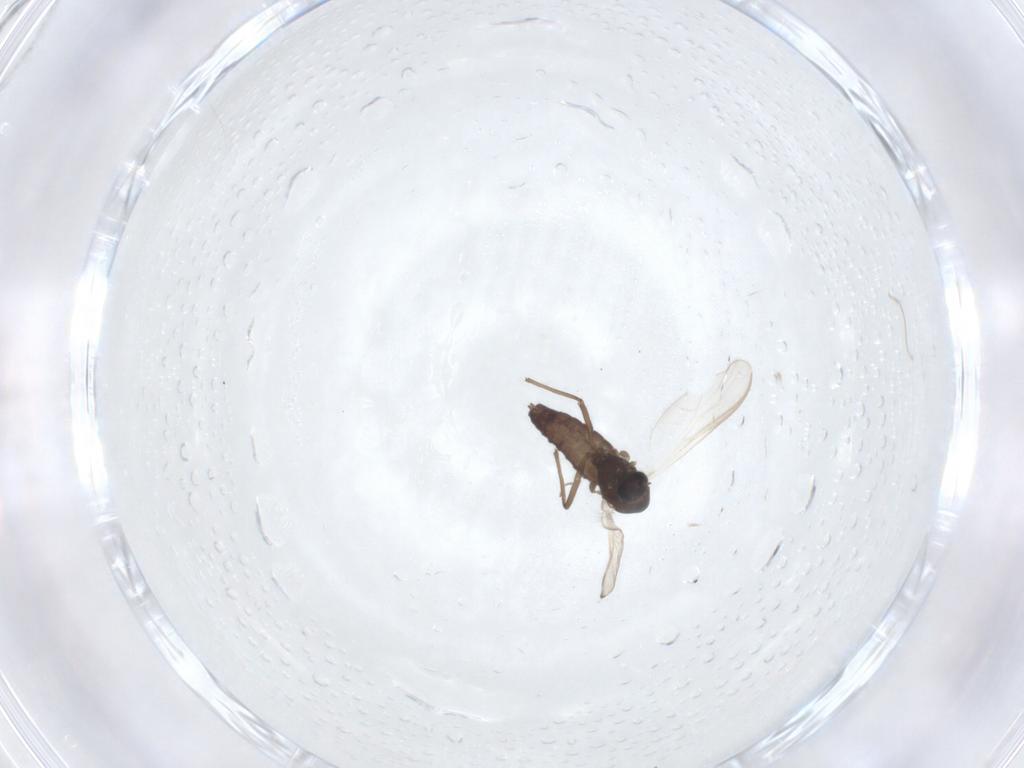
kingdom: Animalia
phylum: Arthropoda
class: Insecta
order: Diptera
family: Chironomidae
